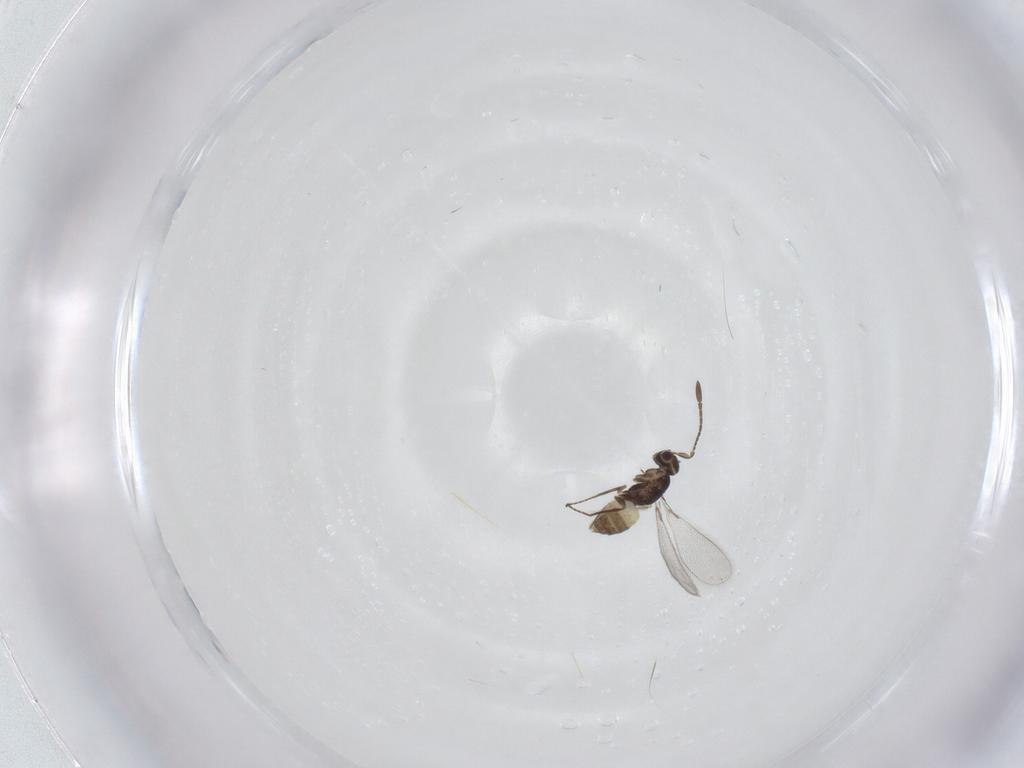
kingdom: Animalia
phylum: Arthropoda
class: Insecta
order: Hymenoptera
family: Mymaridae
